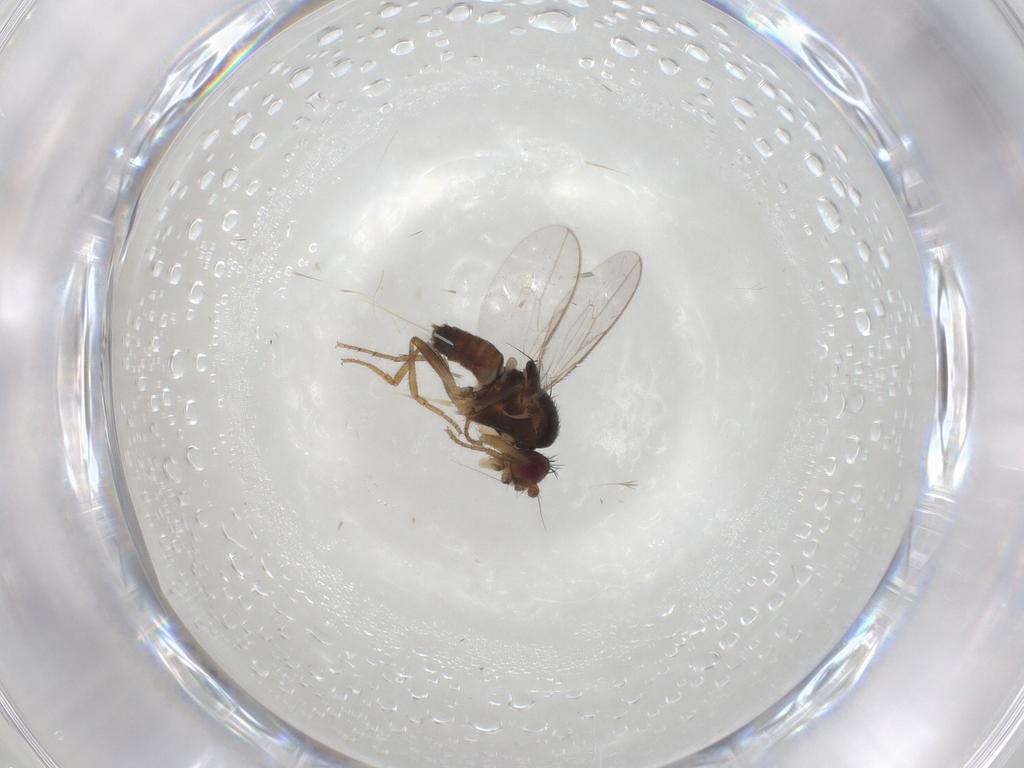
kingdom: Animalia
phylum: Arthropoda
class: Insecta
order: Diptera
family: Sphaeroceridae
